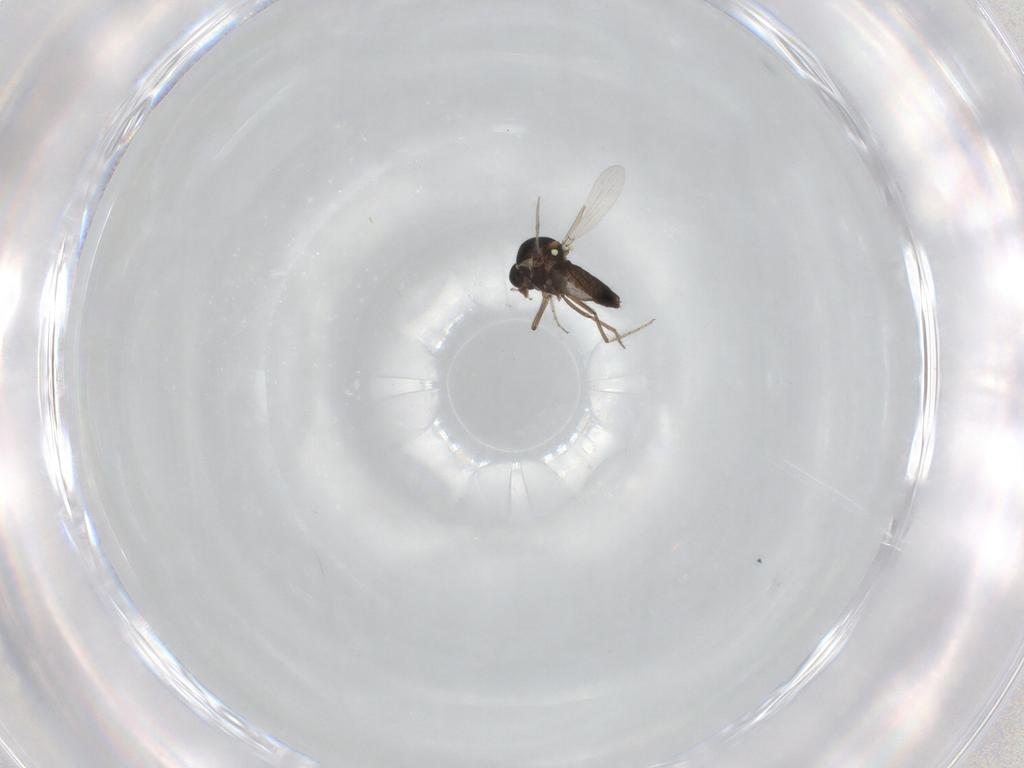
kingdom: Animalia
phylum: Arthropoda
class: Insecta
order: Diptera
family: Ceratopogonidae
